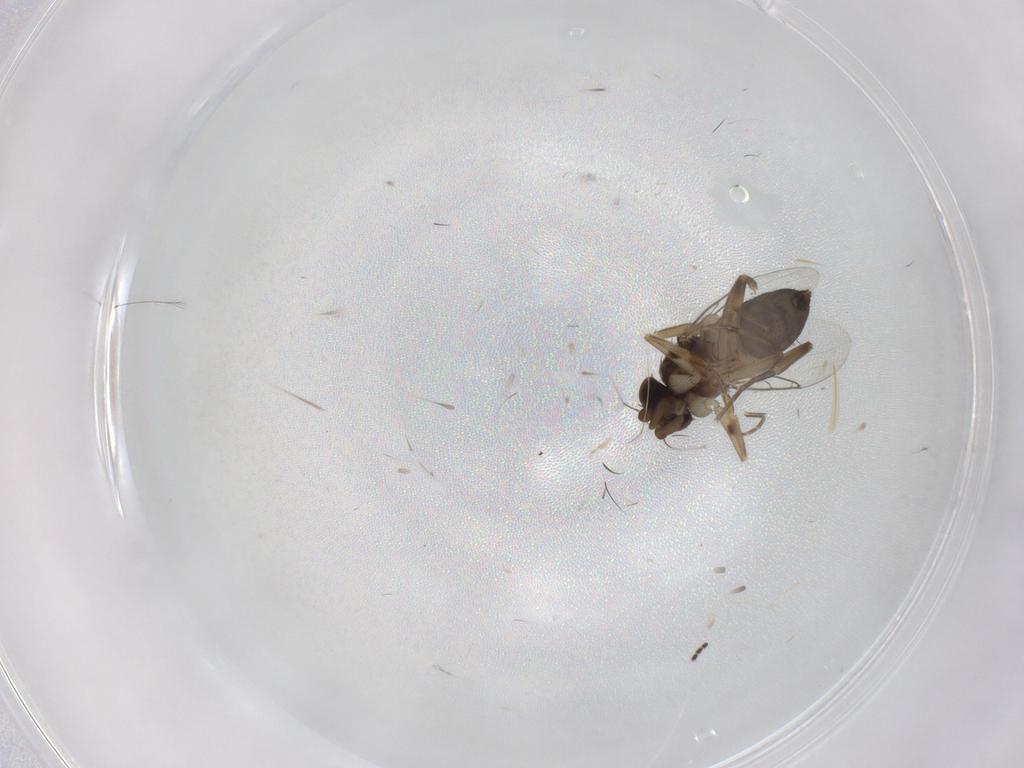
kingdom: Animalia
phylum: Arthropoda
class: Insecta
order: Diptera
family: Phoridae
